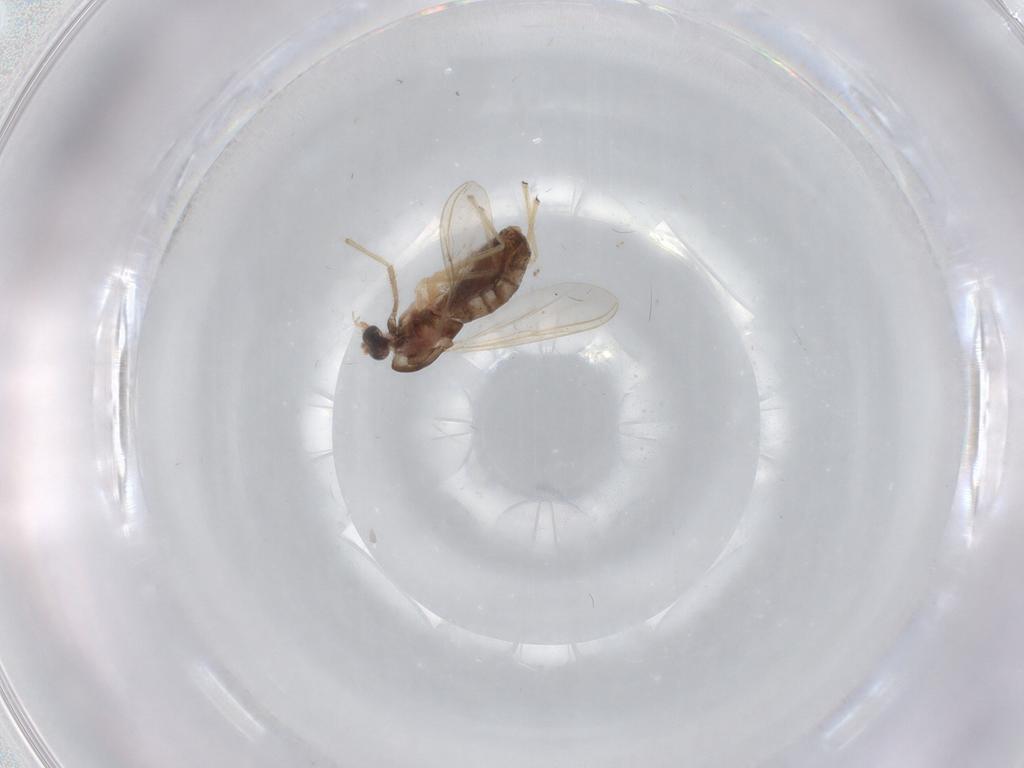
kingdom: Animalia
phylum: Arthropoda
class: Insecta
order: Diptera
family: Chironomidae
